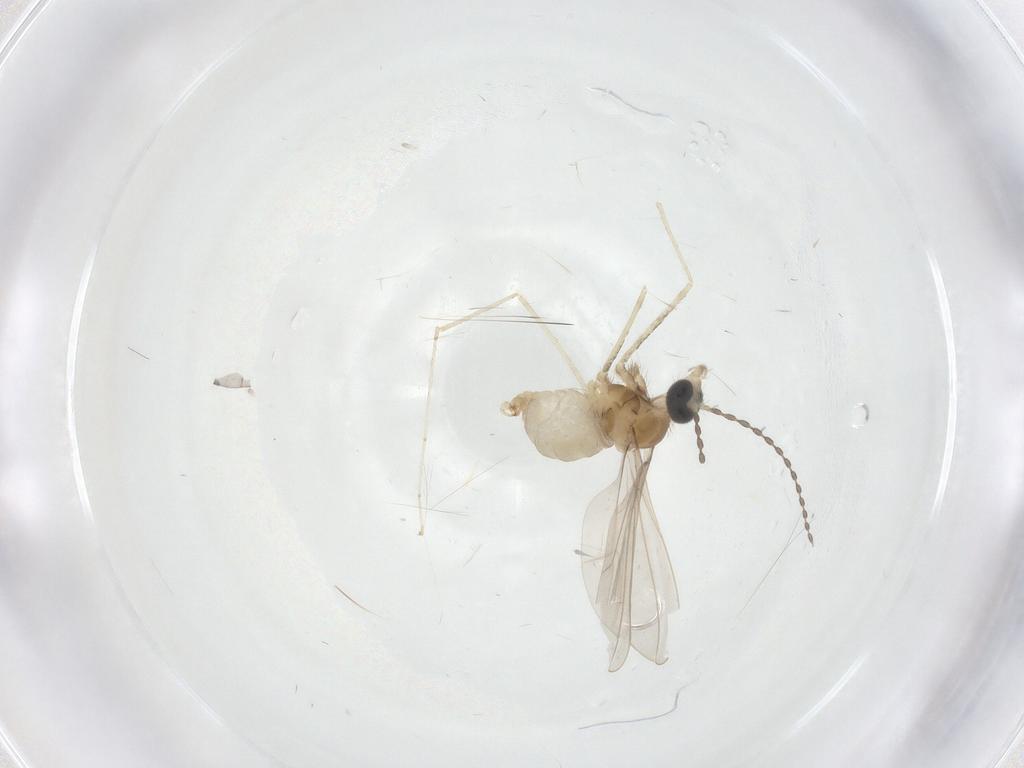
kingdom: Animalia
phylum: Arthropoda
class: Insecta
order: Diptera
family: Cecidomyiidae
